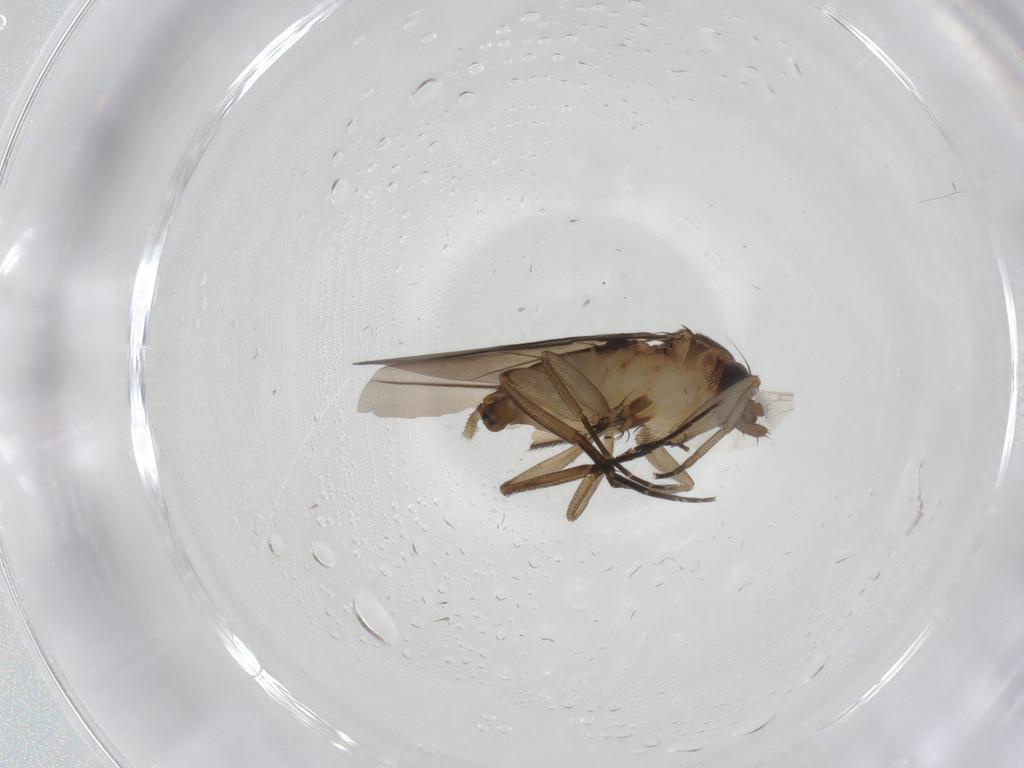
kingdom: Animalia
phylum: Arthropoda
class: Insecta
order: Diptera
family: Phoridae
